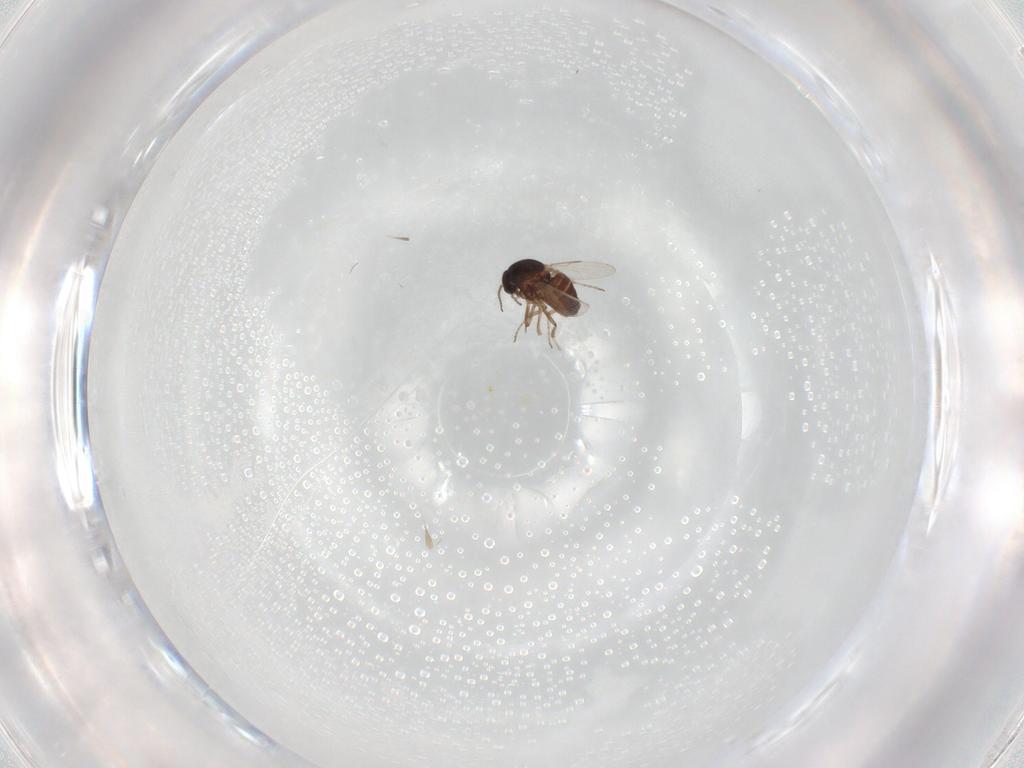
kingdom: Animalia
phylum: Arthropoda
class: Insecta
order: Diptera
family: Ceratopogonidae
